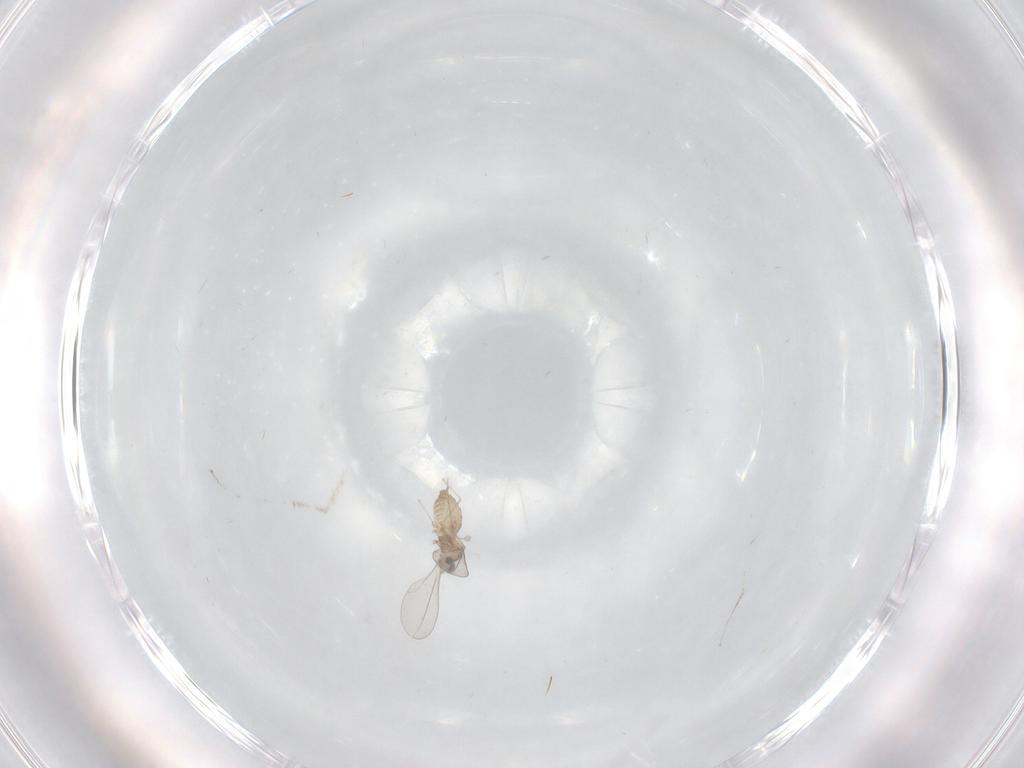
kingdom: Animalia
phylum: Arthropoda
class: Insecta
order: Diptera
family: Cecidomyiidae
